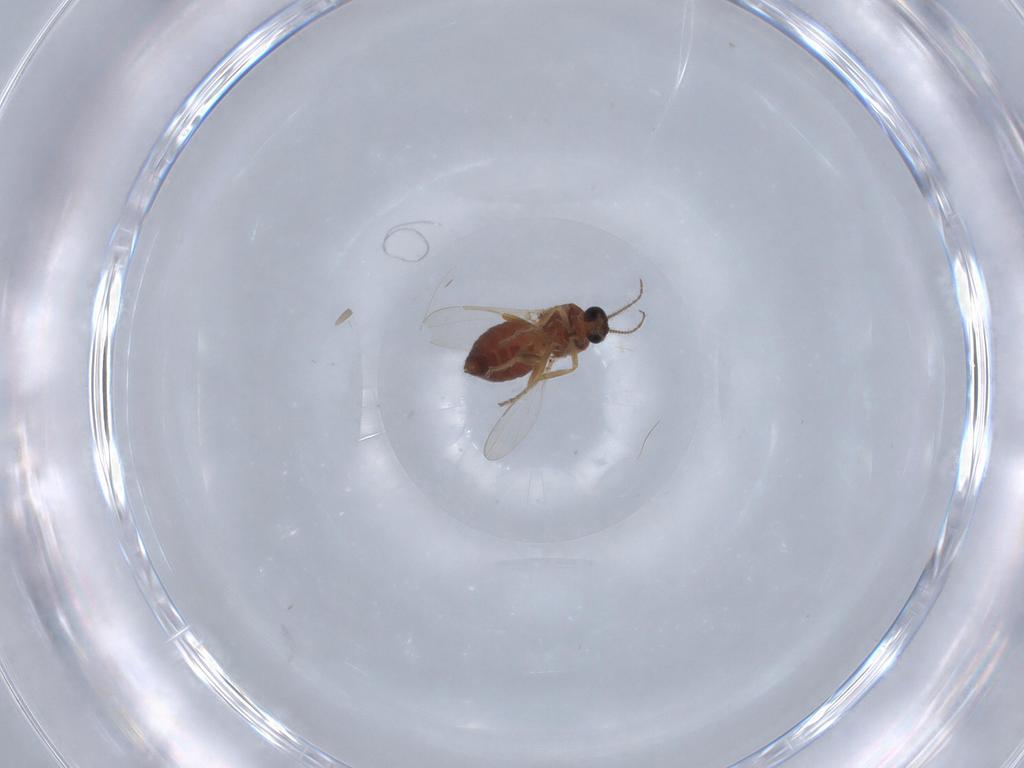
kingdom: Animalia
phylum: Arthropoda
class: Insecta
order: Diptera
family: Ceratopogonidae
